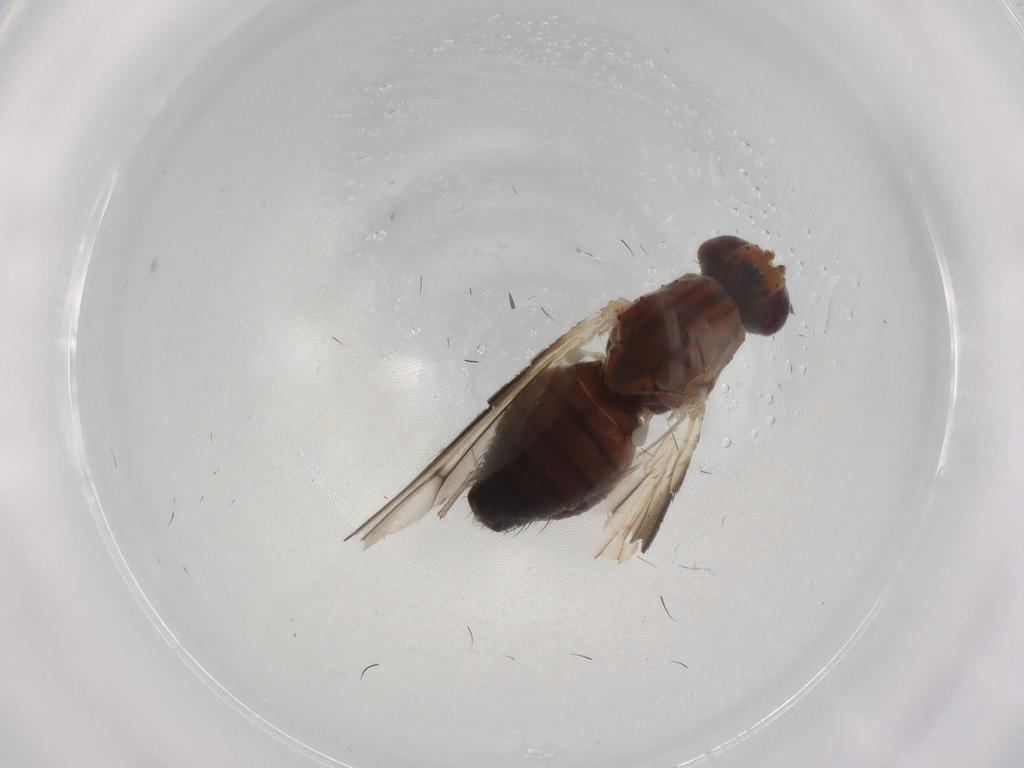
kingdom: Animalia
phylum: Arthropoda
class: Insecta
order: Diptera
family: Heleomyzidae
